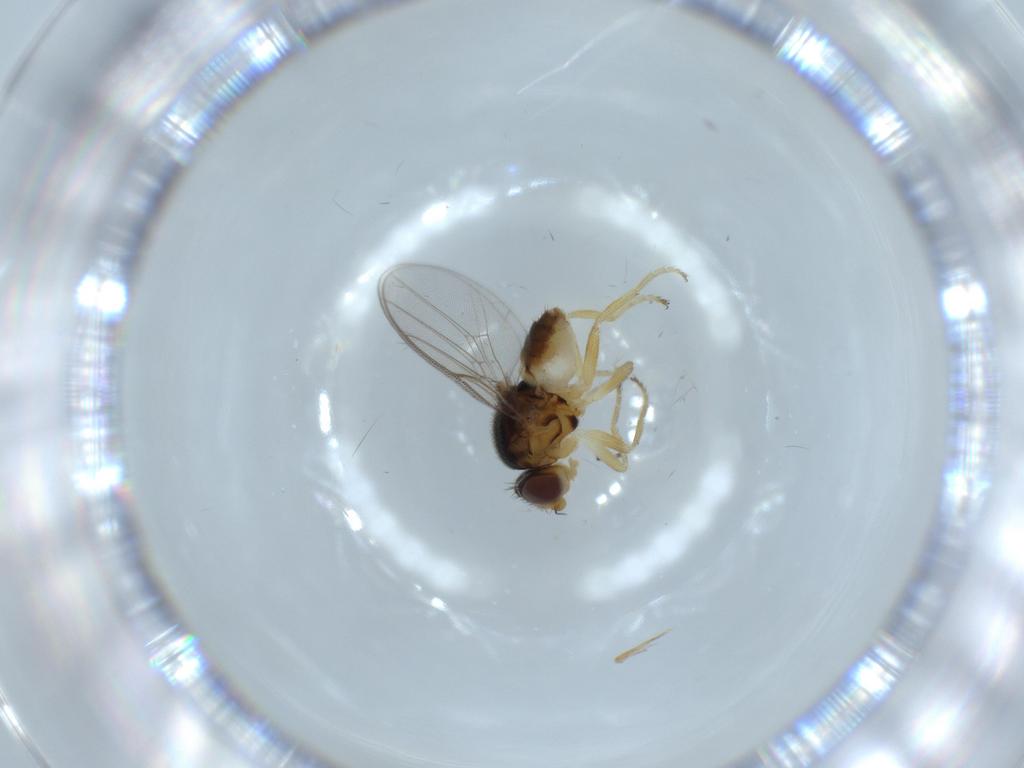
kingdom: Animalia
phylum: Arthropoda
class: Insecta
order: Diptera
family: Chloropidae
